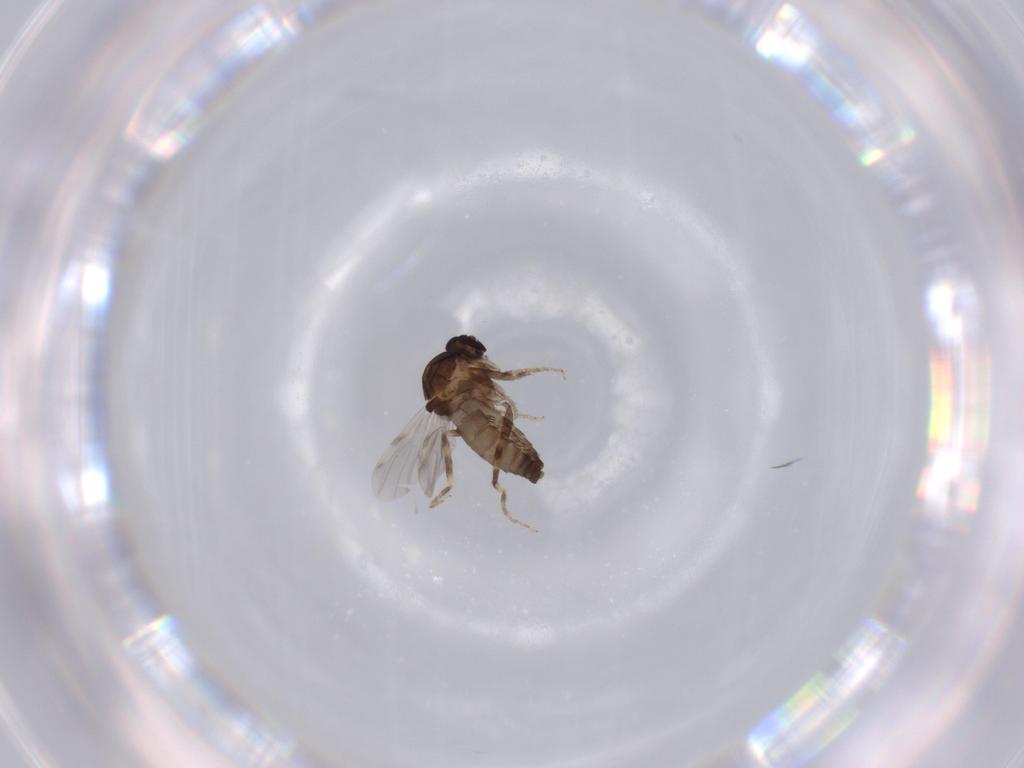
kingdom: Animalia
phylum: Arthropoda
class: Insecta
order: Diptera
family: Ceratopogonidae
